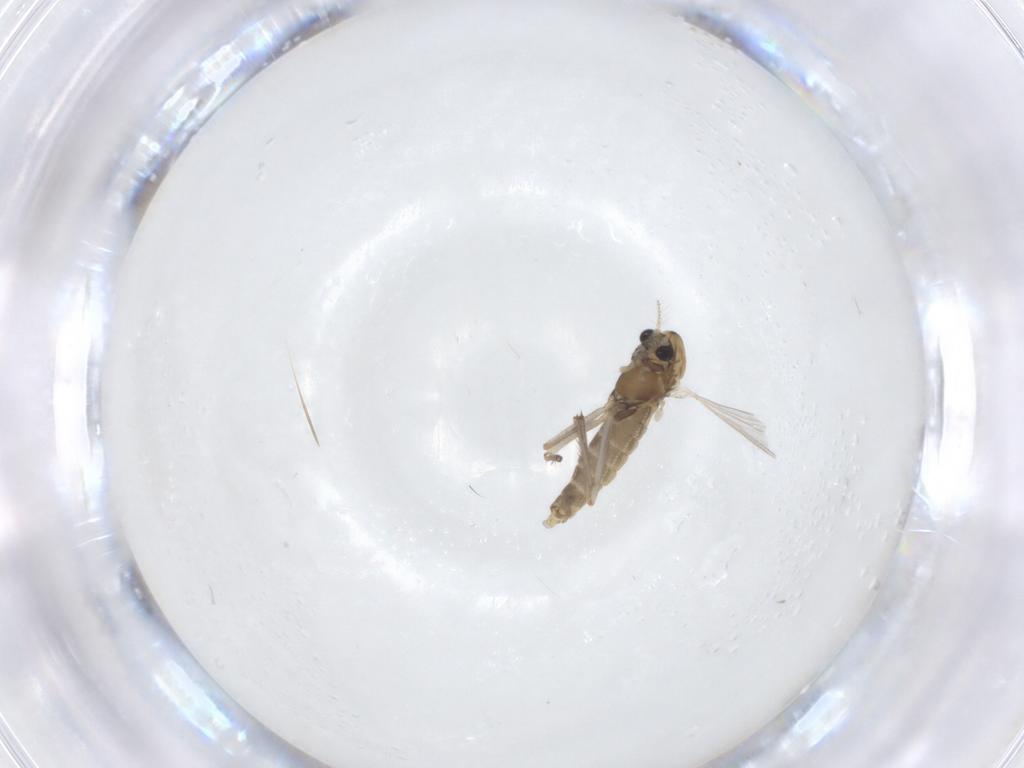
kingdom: Animalia
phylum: Arthropoda
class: Insecta
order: Diptera
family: Chironomidae
